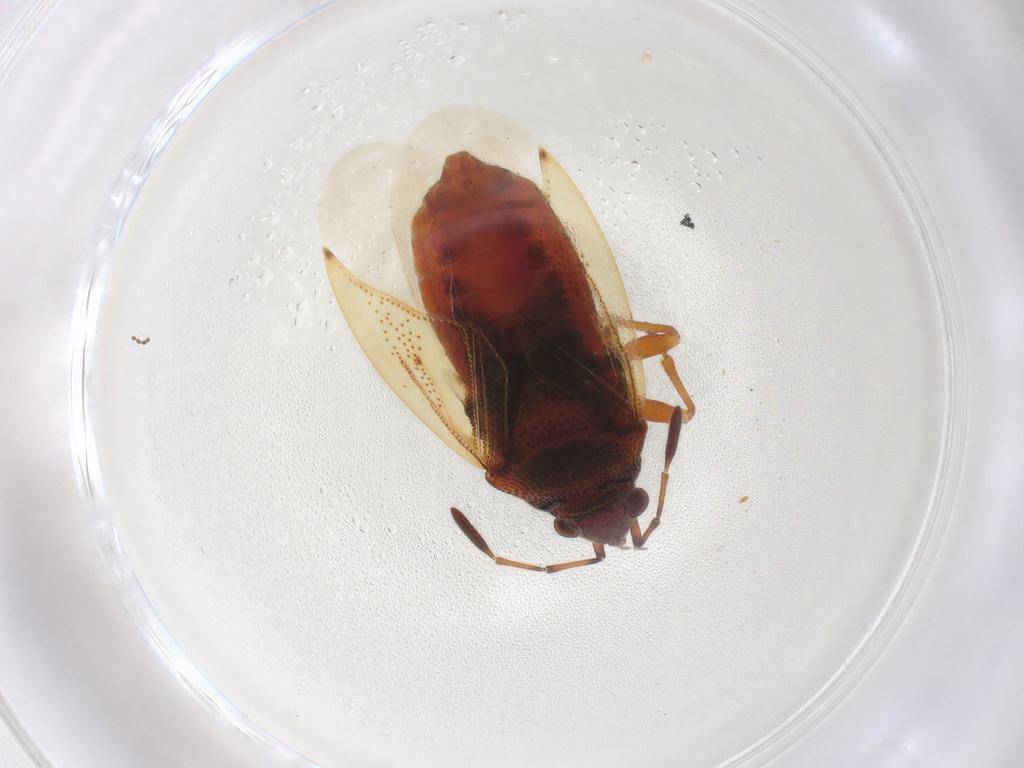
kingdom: Animalia
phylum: Arthropoda
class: Insecta
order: Hemiptera
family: Lygaeidae
